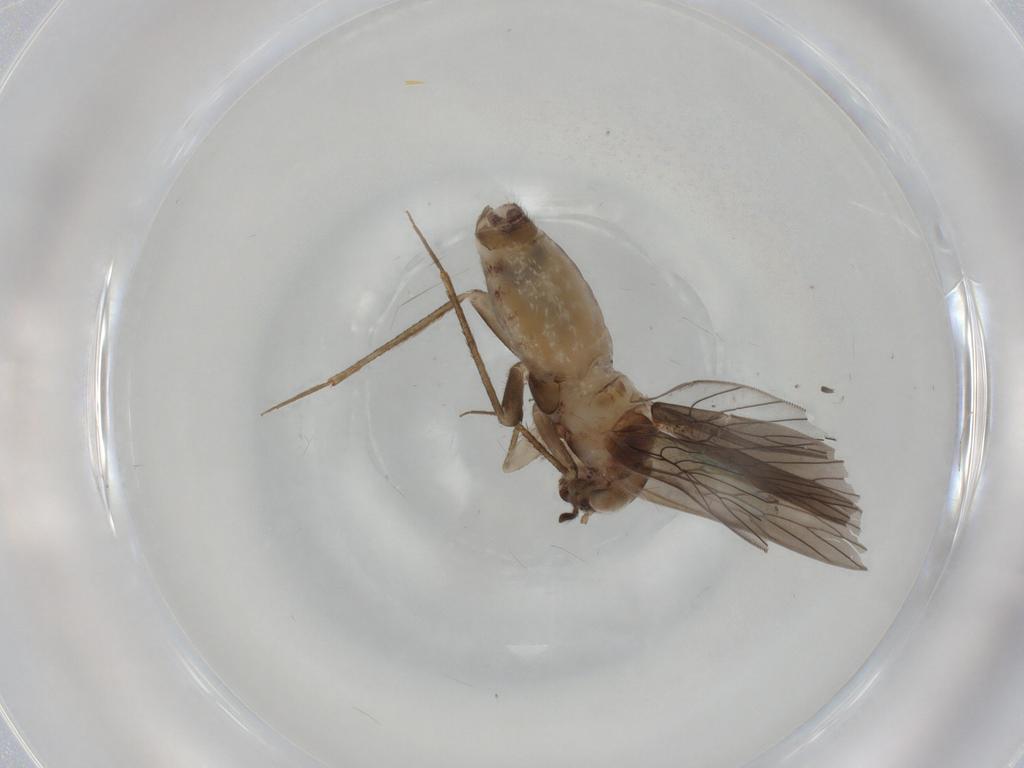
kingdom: Animalia
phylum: Arthropoda
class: Insecta
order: Psocodea
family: Lepidopsocidae
